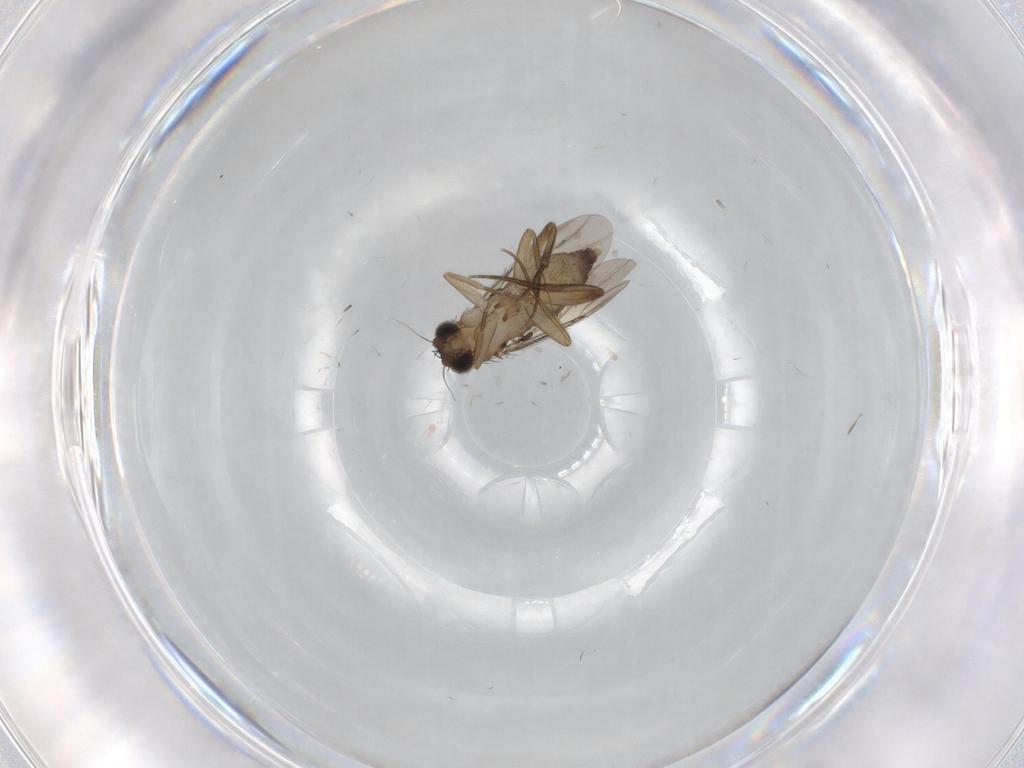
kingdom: Animalia
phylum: Arthropoda
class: Insecta
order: Diptera
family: Phoridae
